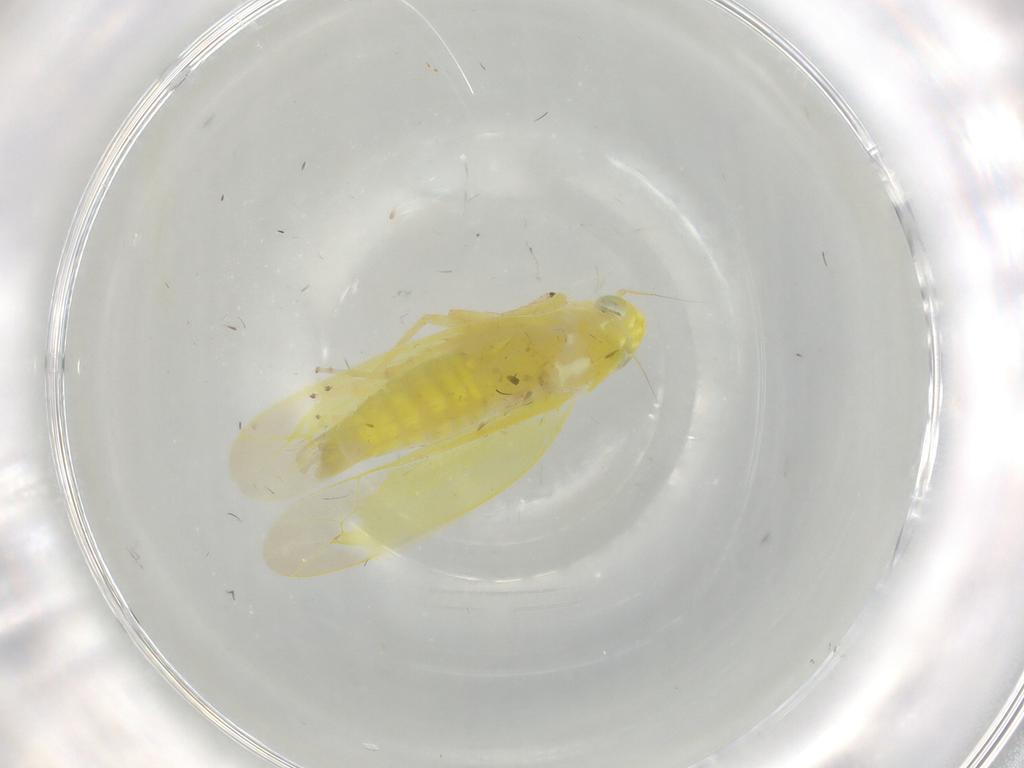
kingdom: Animalia
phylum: Arthropoda
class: Insecta
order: Hemiptera
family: Cicadellidae
